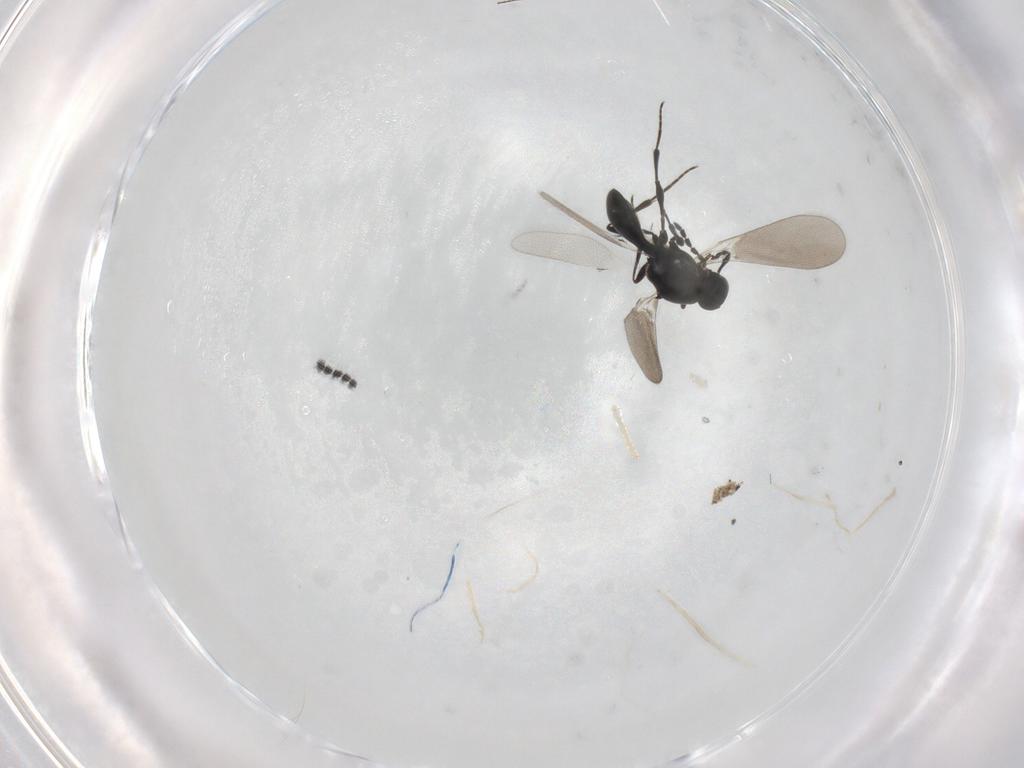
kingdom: Animalia
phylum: Arthropoda
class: Insecta
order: Hymenoptera
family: Platygastridae
